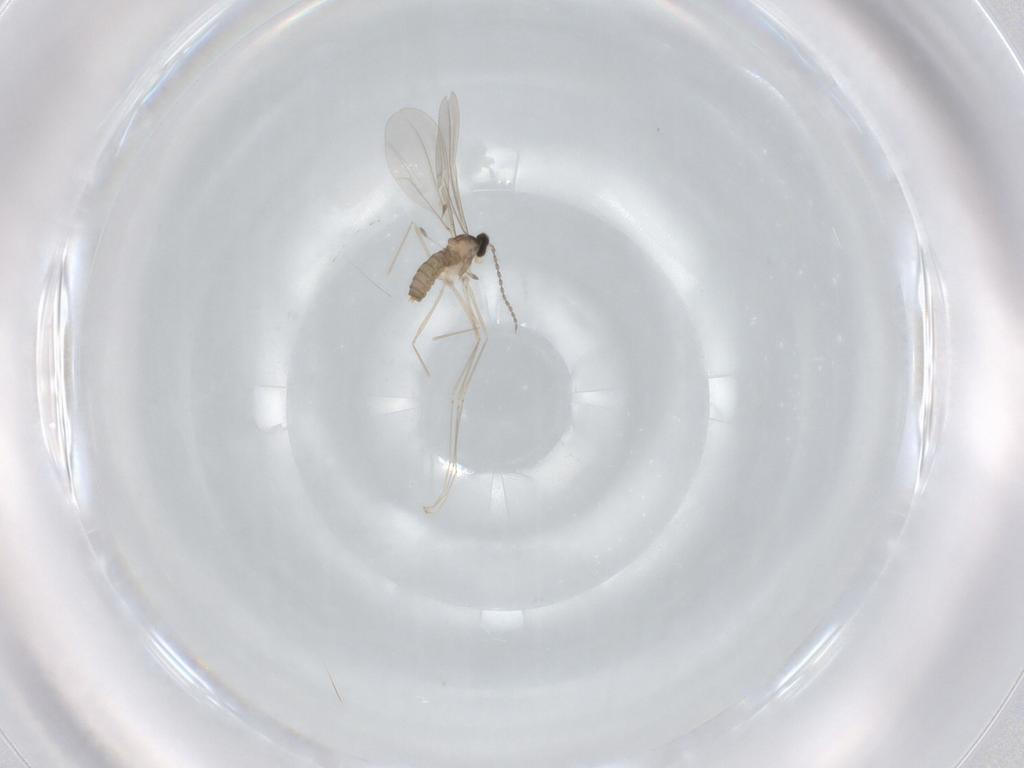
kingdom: Animalia
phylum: Arthropoda
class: Insecta
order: Diptera
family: Cecidomyiidae
